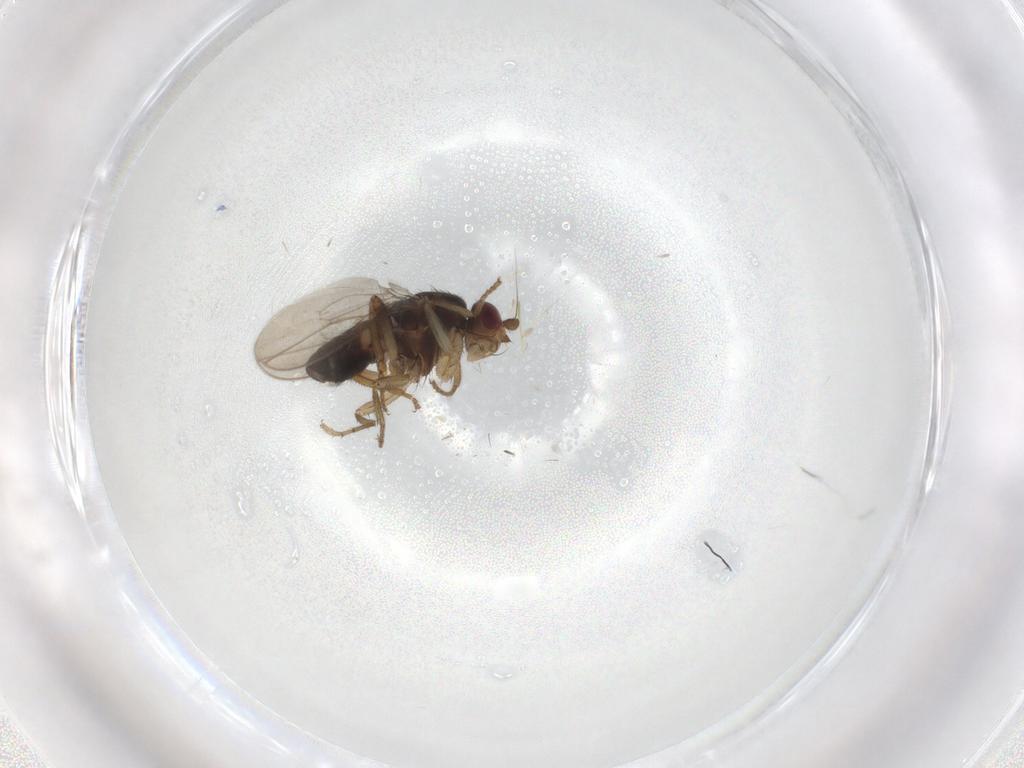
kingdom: Animalia
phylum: Arthropoda
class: Insecta
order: Diptera
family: Sphaeroceridae
